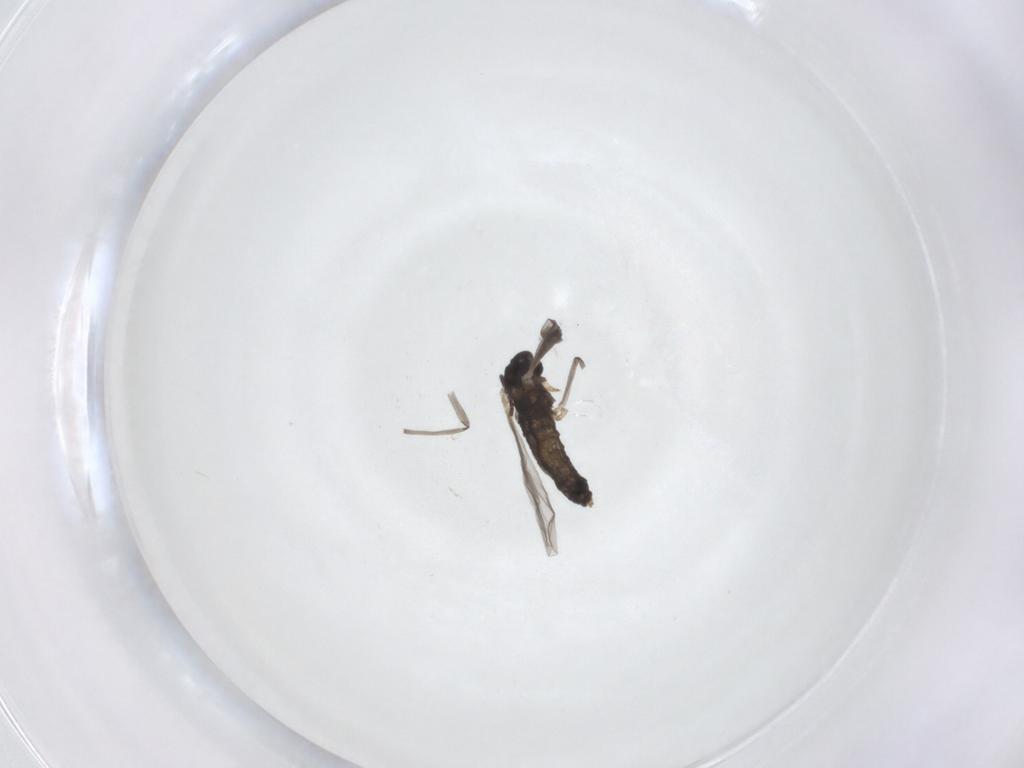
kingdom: Animalia
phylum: Arthropoda
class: Insecta
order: Diptera
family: Sciaridae
